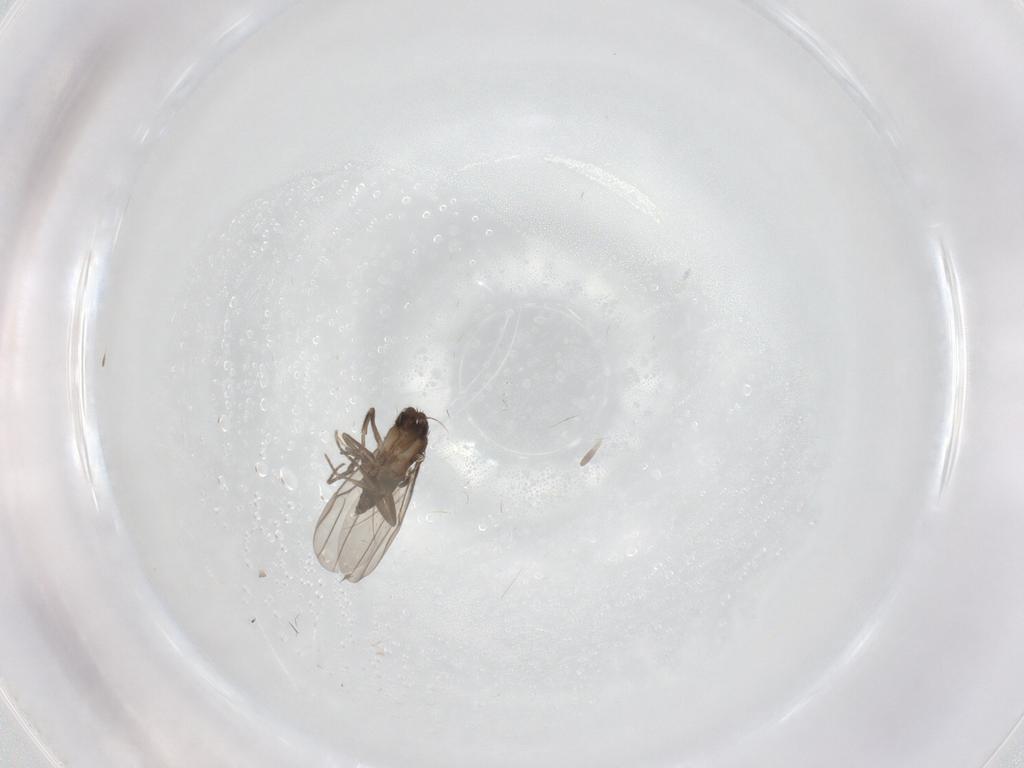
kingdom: Animalia
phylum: Arthropoda
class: Insecta
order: Diptera
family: Phoridae
